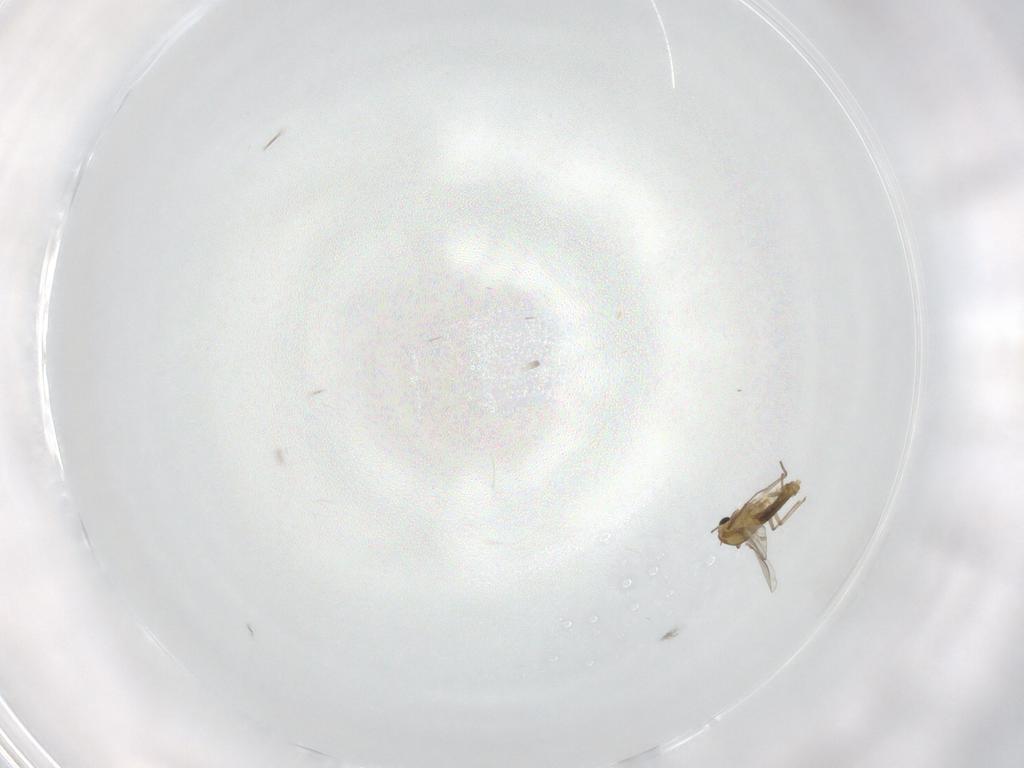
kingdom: Animalia
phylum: Arthropoda
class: Insecta
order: Diptera
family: Chironomidae
